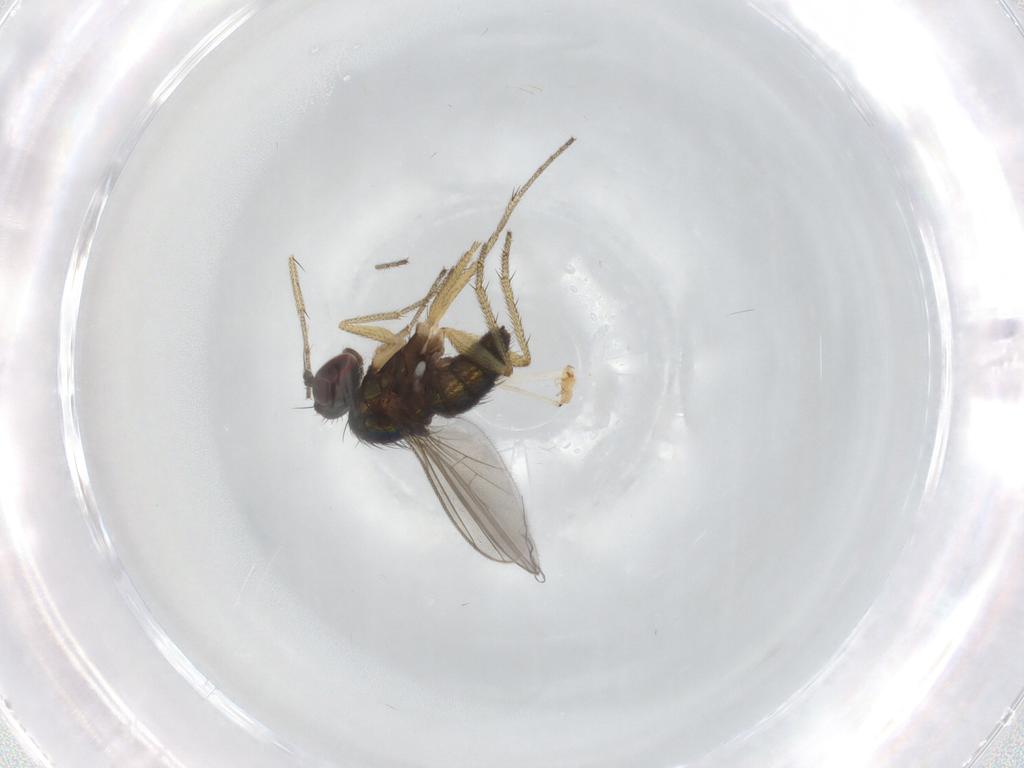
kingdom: Animalia
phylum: Arthropoda
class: Insecta
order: Diptera
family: Dolichopodidae
